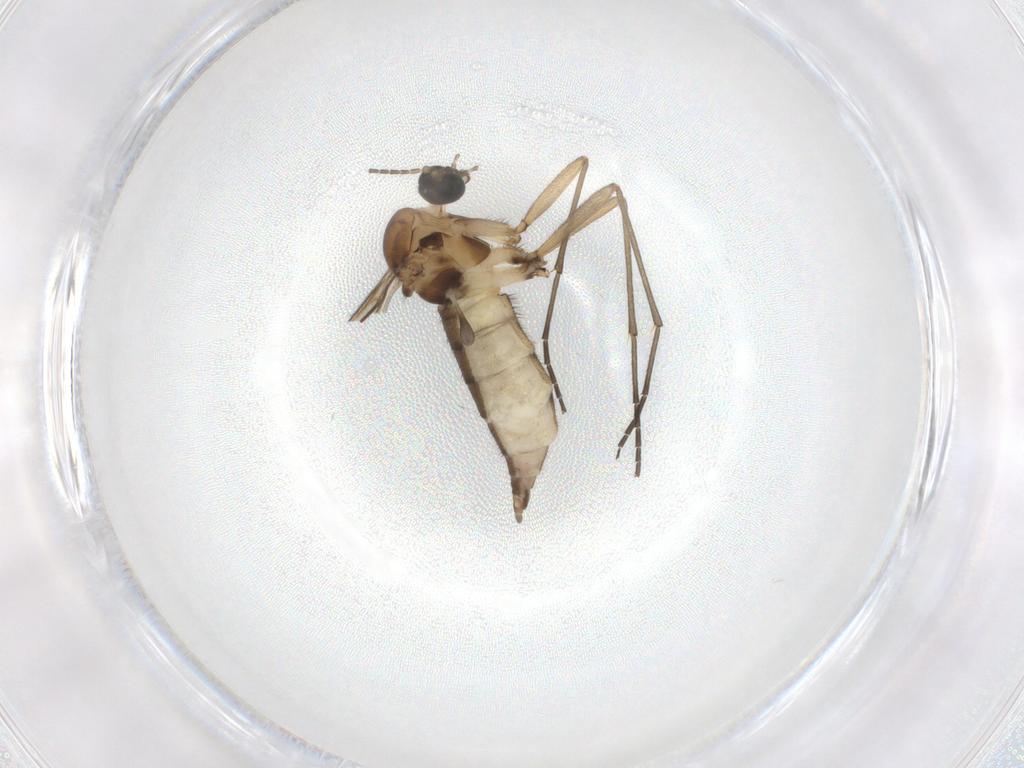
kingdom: Animalia
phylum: Arthropoda
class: Insecta
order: Diptera
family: Sciaridae
